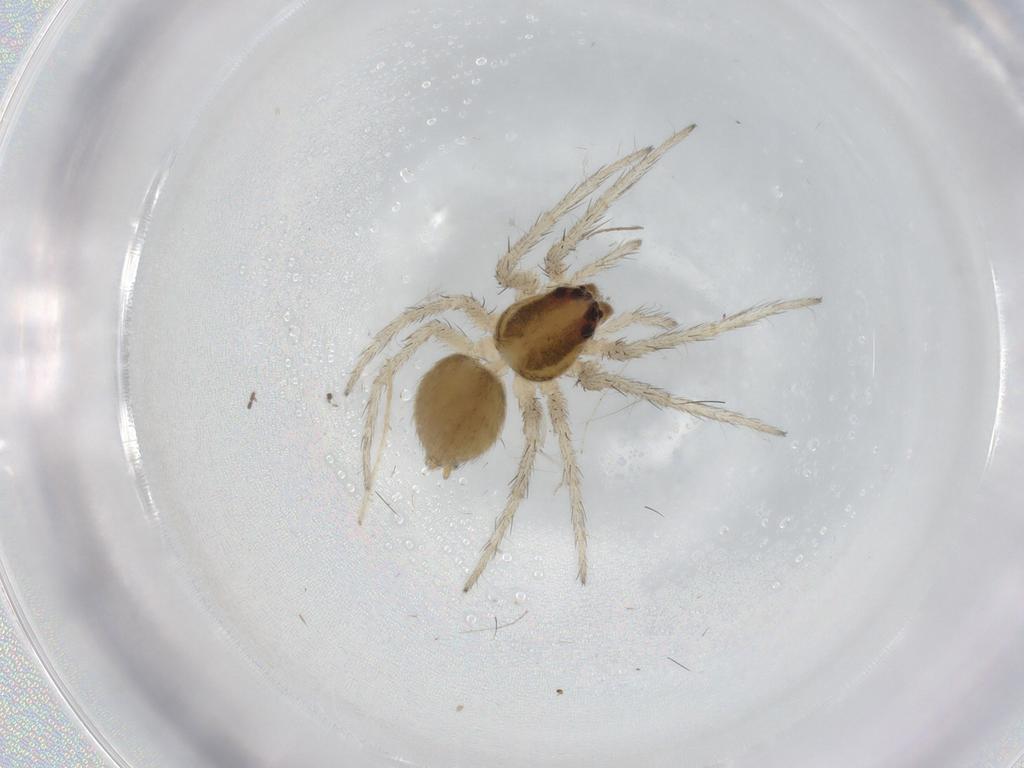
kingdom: Animalia
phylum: Arthropoda
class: Arachnida
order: Araneae
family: Ctenidae
